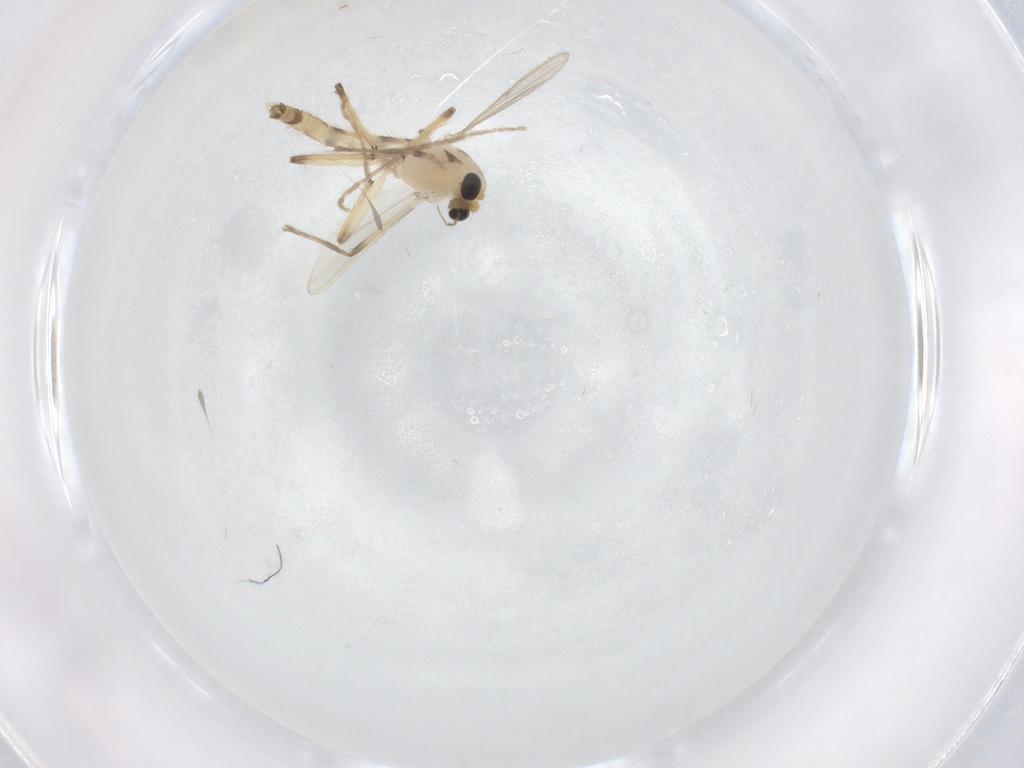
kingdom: Animalia
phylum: Arthropoda
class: Insecta
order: Diptera
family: Chironomidae
